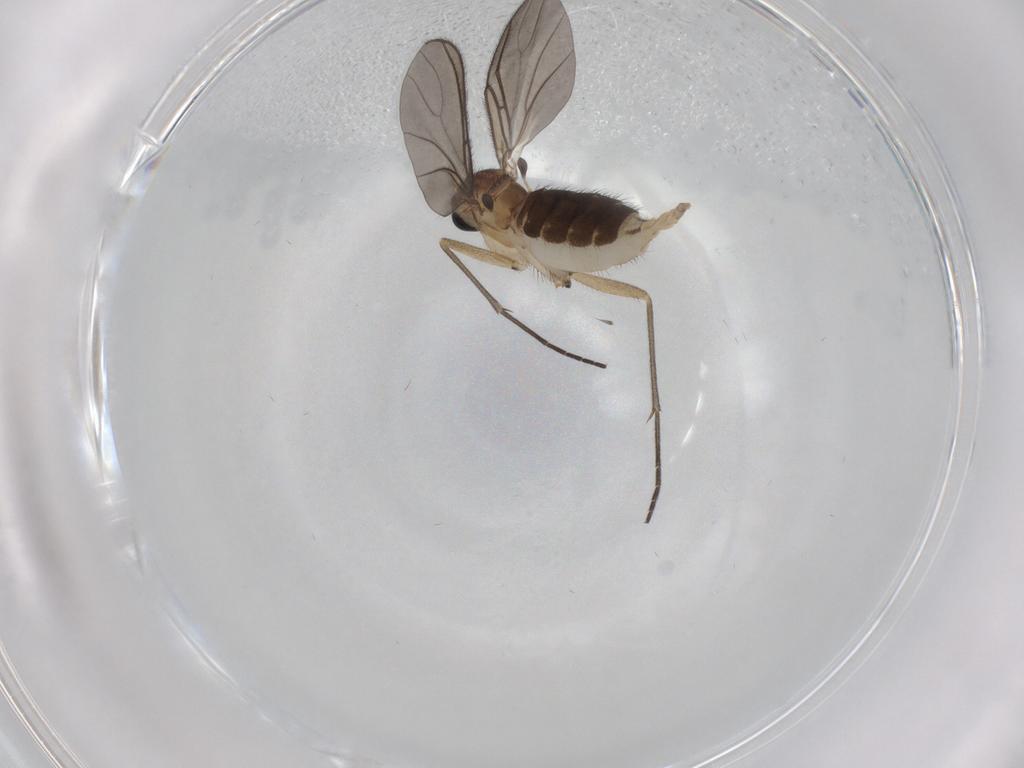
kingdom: Animalia
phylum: Arthropoda
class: Insecta
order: Diptera
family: Sciaridae
